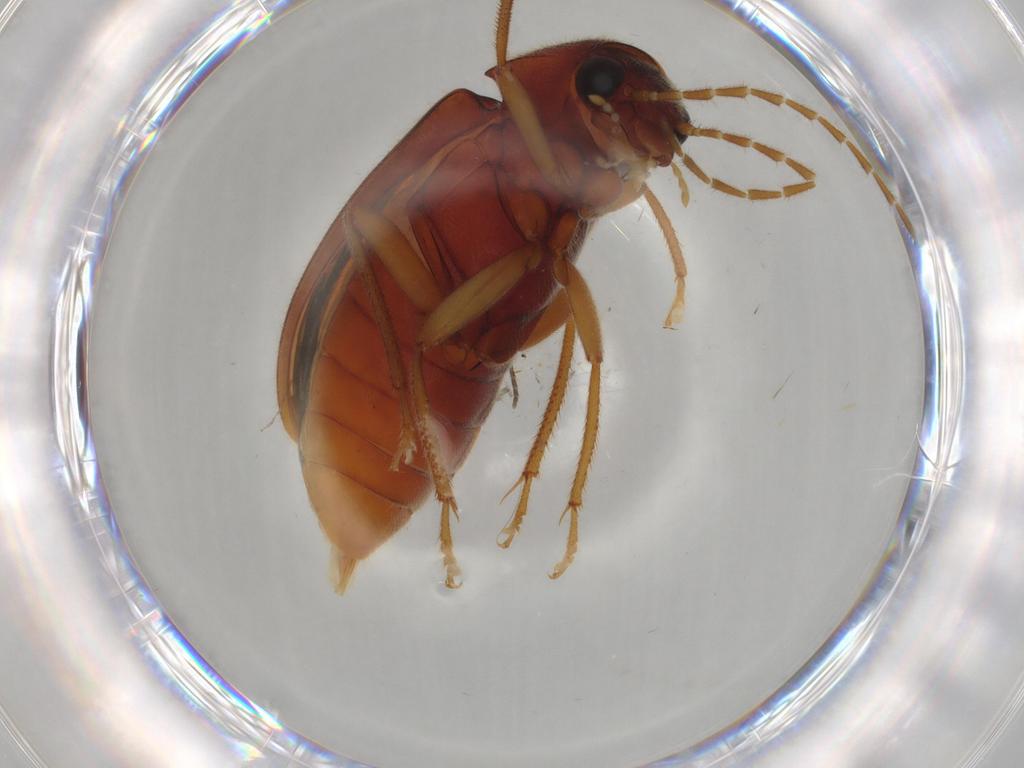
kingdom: Animalia
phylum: Arthropoda
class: Insecta
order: Coleoptera
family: Ptilodactylidae
